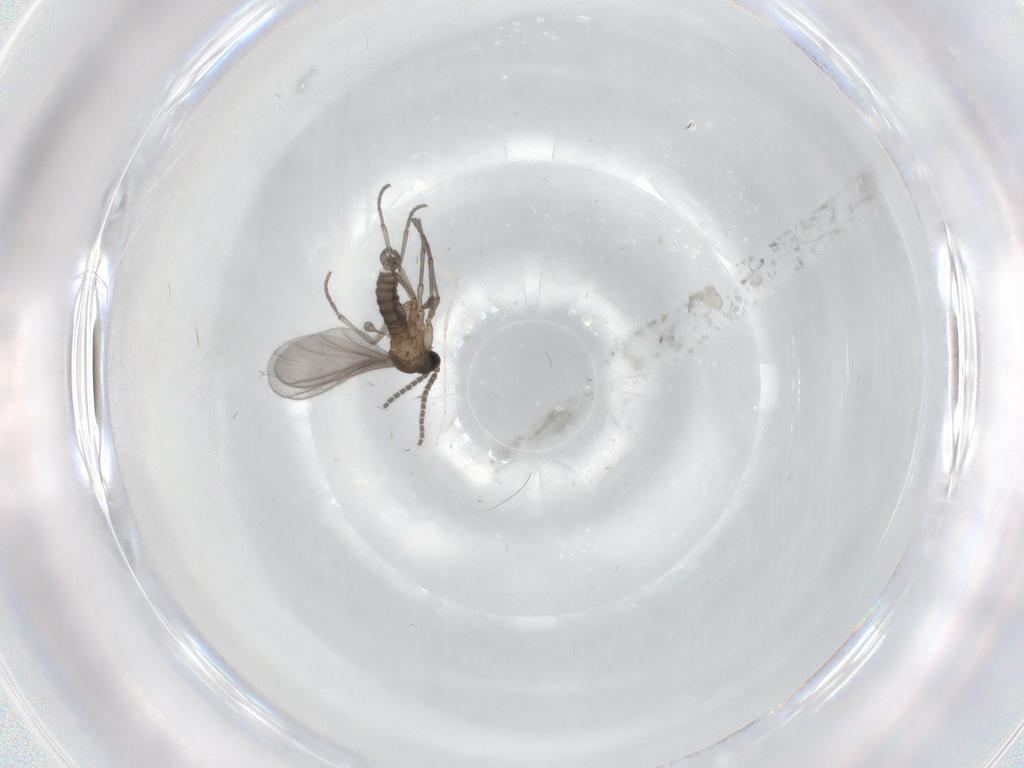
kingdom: Animalia
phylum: Arthropoda
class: Insecta
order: Diptera
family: Sciaridae
